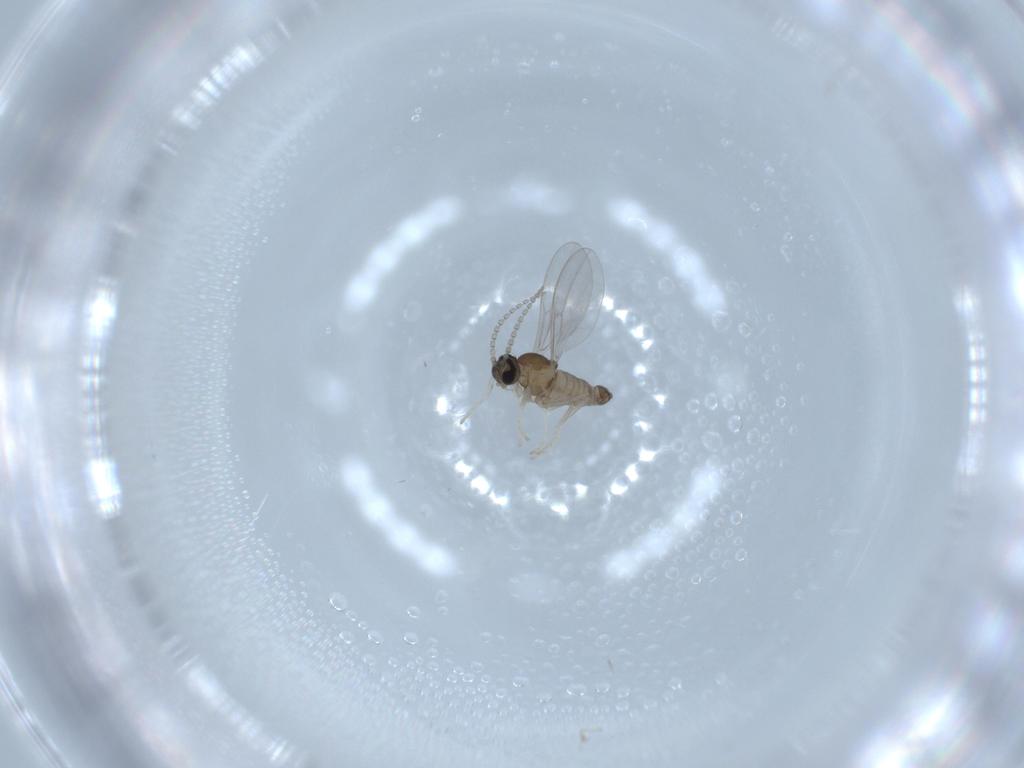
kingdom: Animalia
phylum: Arthropoda
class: Insecta
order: Diptera
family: Cecidomyiidae
